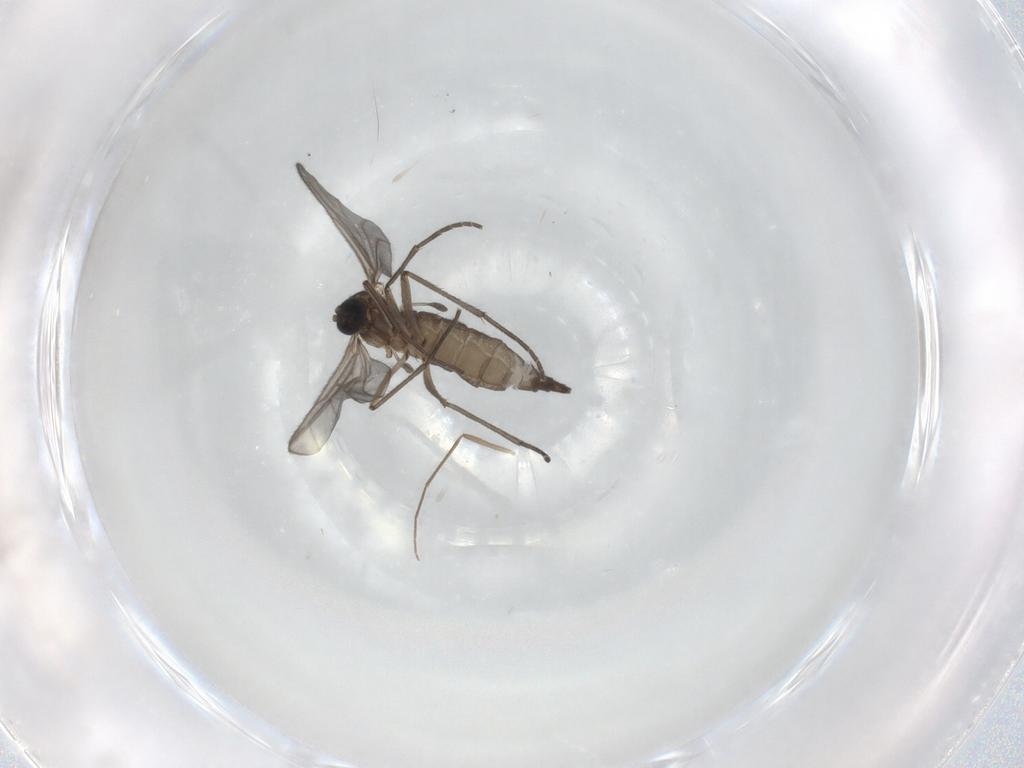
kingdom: Animalia
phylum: Arthropoda
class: Insecta
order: Diptera
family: Chironomidae
